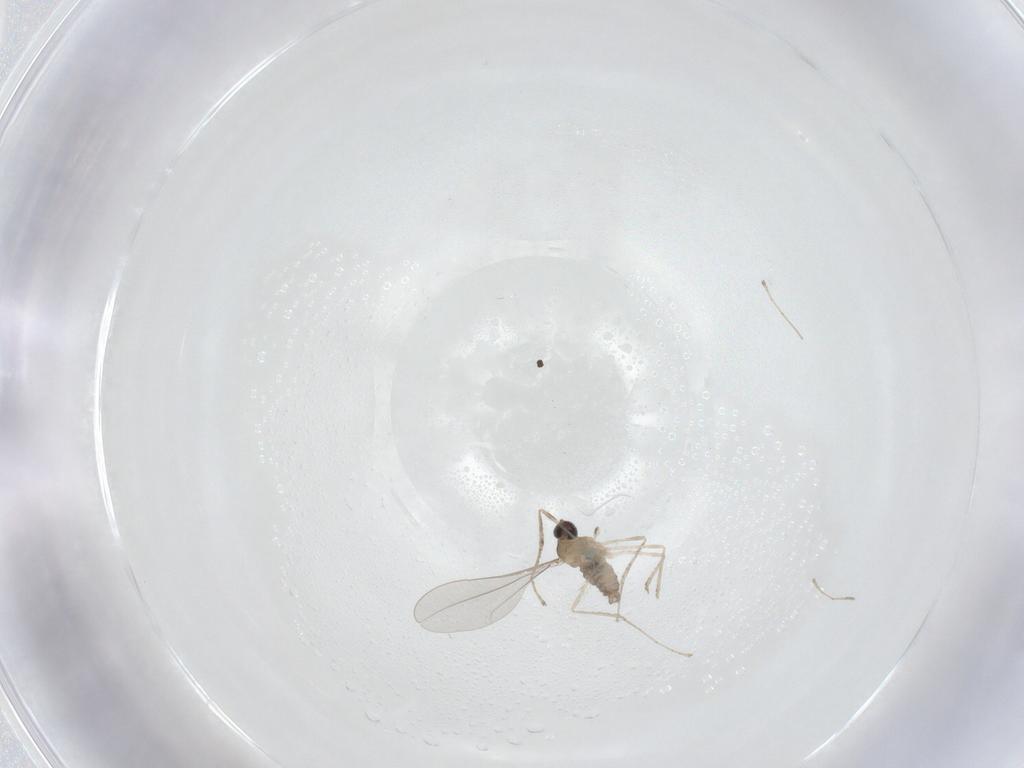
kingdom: Animalia
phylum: Arthropoda
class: Insecta
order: Diptera
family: Cecidomyiidae
